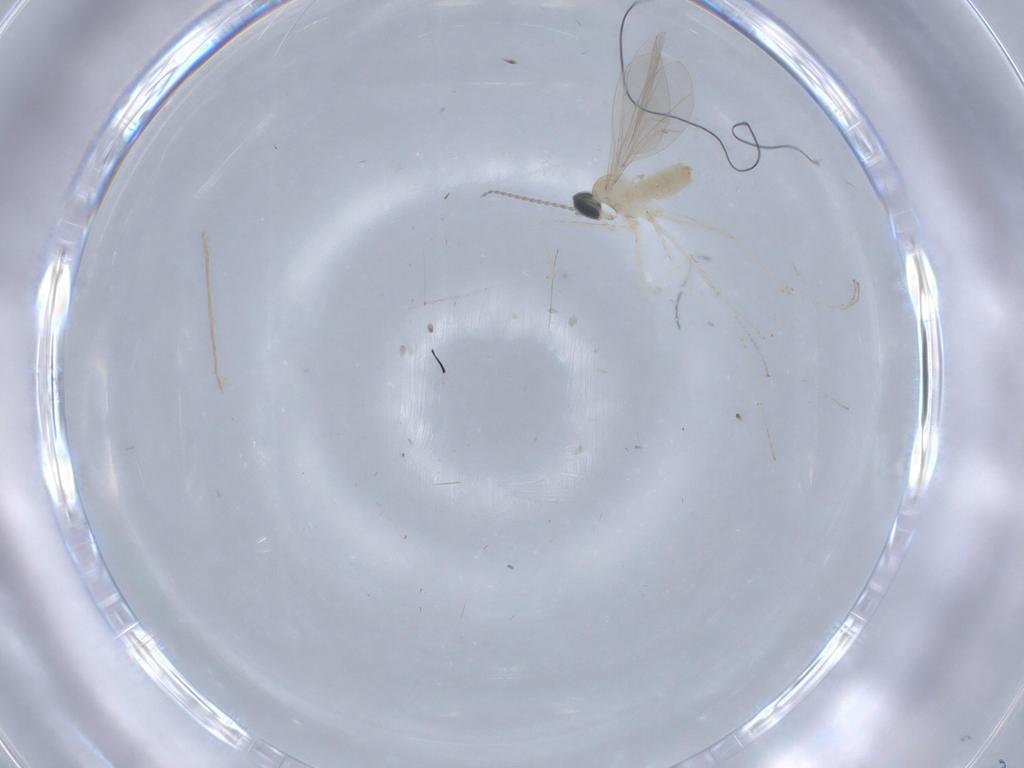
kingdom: Animalia
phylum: Arthropoda
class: Insecta
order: Diptera
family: Cecidomyiidae
